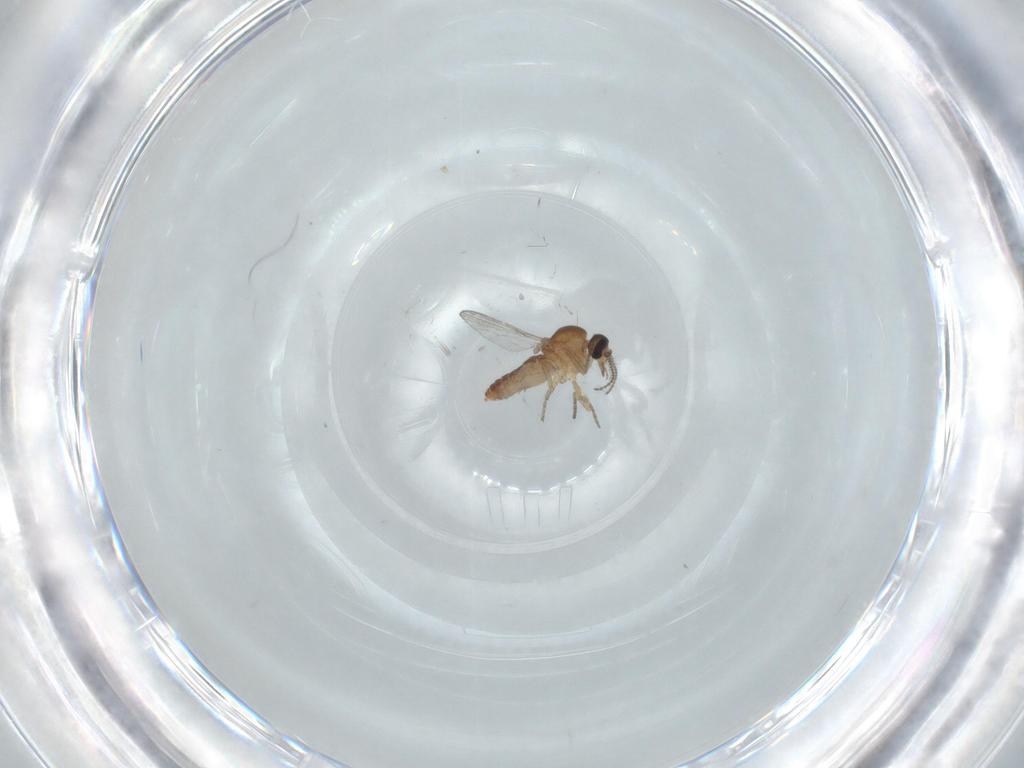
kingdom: Animalia
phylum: Arthropoda
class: Insecta
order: Diptera
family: Ceratopogonidae
